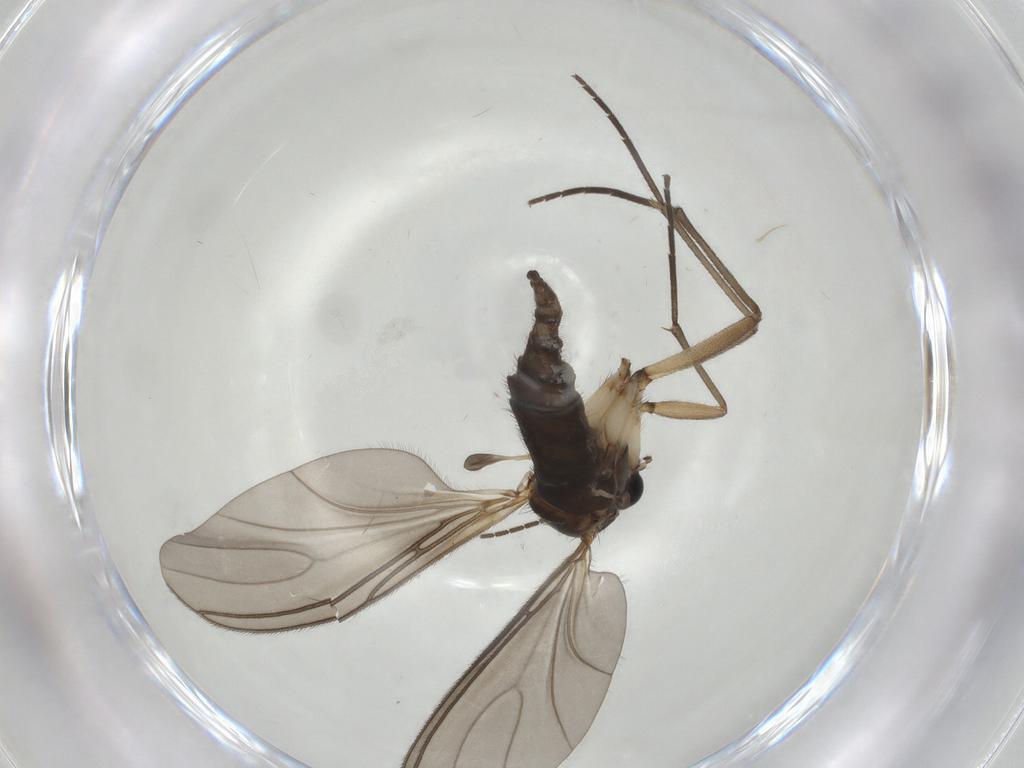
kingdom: Animalia
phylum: Arthropoda
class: Insecta
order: Diptera
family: Sciaridae
